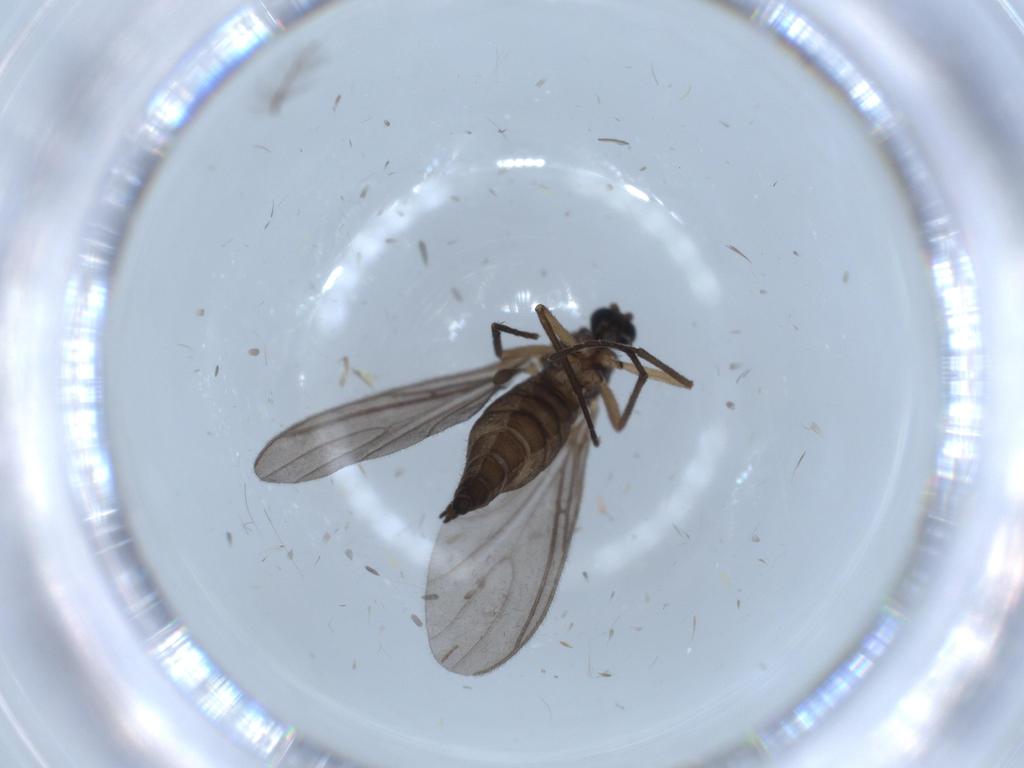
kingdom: Animalia
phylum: Arthropoda
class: Insecta
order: Diptera
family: Sciaridae
